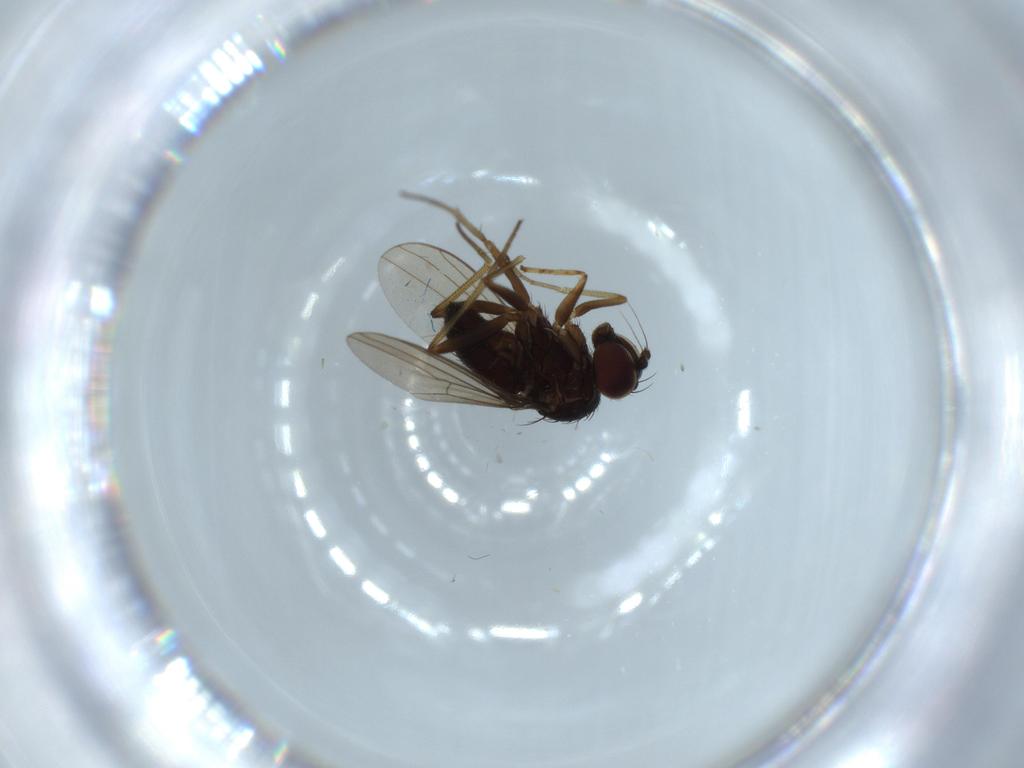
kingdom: Animalia
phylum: Arthropoda
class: Insecta
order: Diptera
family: Dolichopodidae
